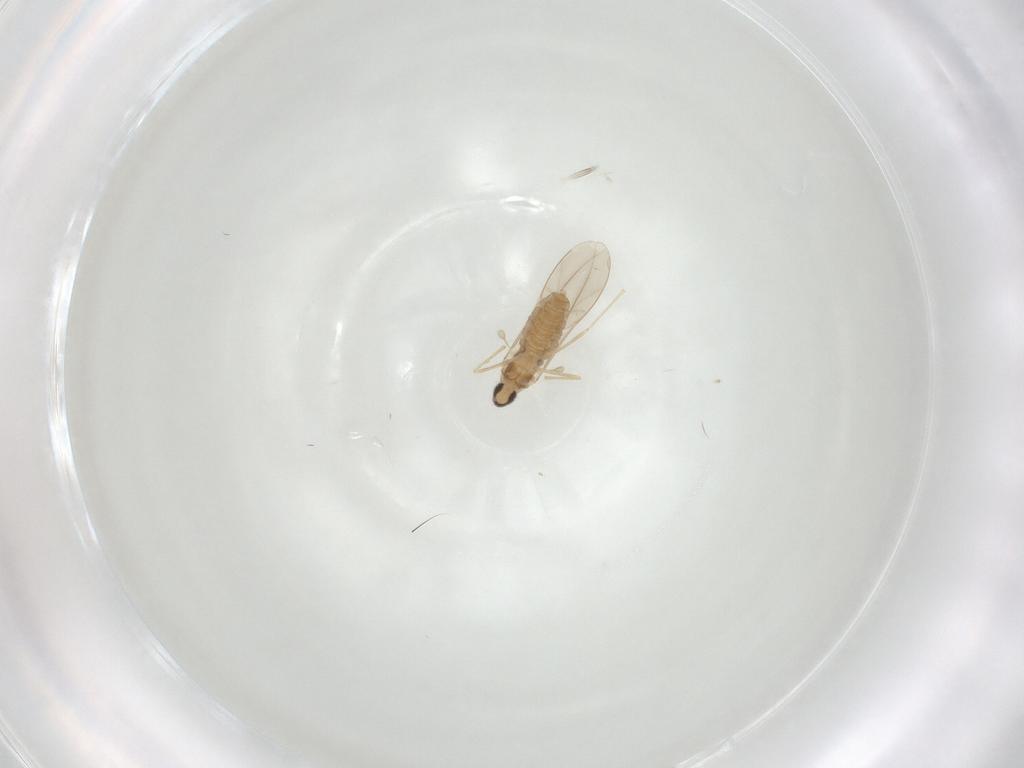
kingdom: Animalia
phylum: Arthropoda
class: Insecta
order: Diptera
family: Cecidomyiidae
